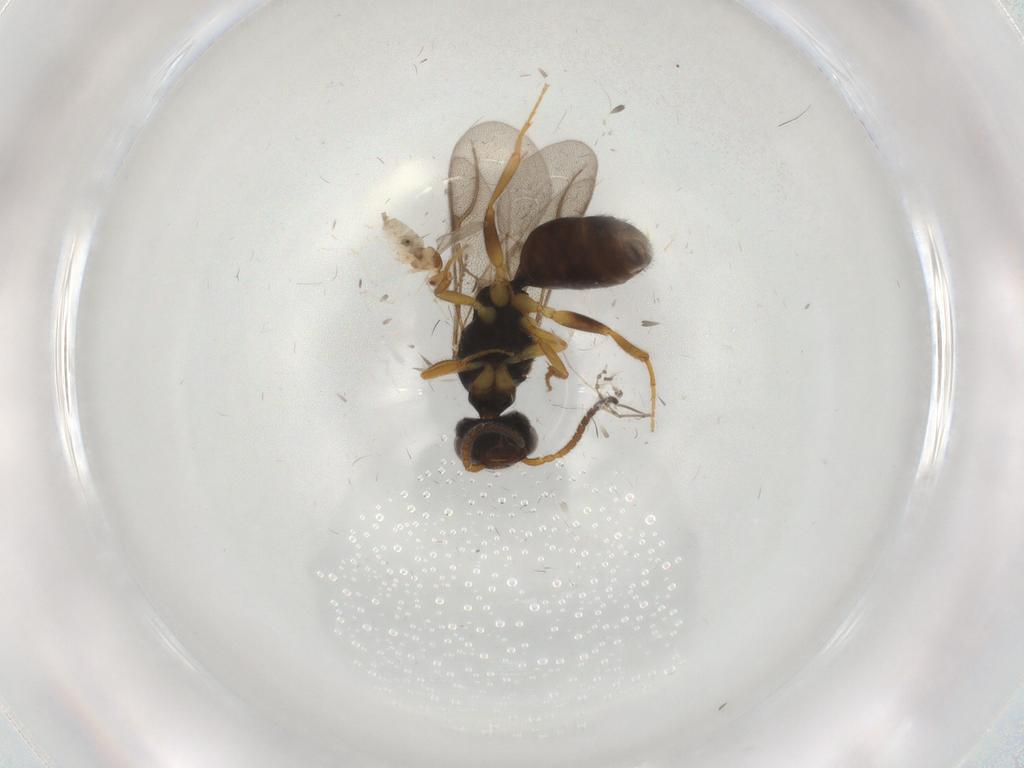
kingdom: Animalia
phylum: Arthropoda
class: Insecta
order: Hymenoptera
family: Bethylidae
